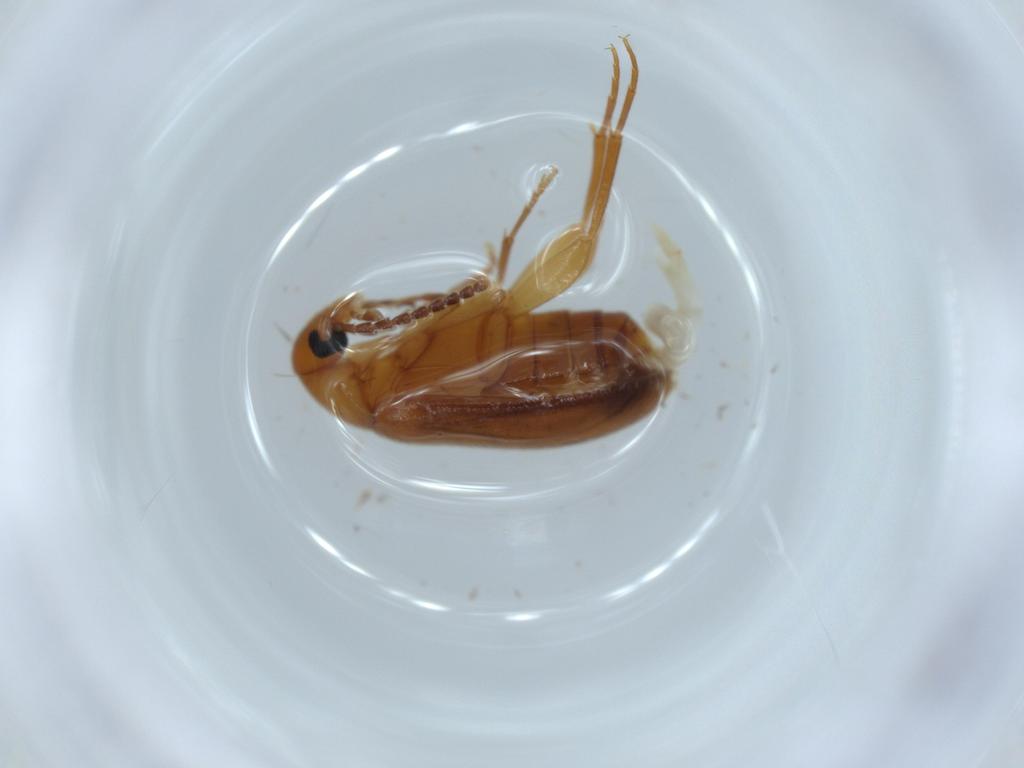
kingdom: Animalia
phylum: Arthropoda
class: Insecta
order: Coleoptera
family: Scraptiidae
